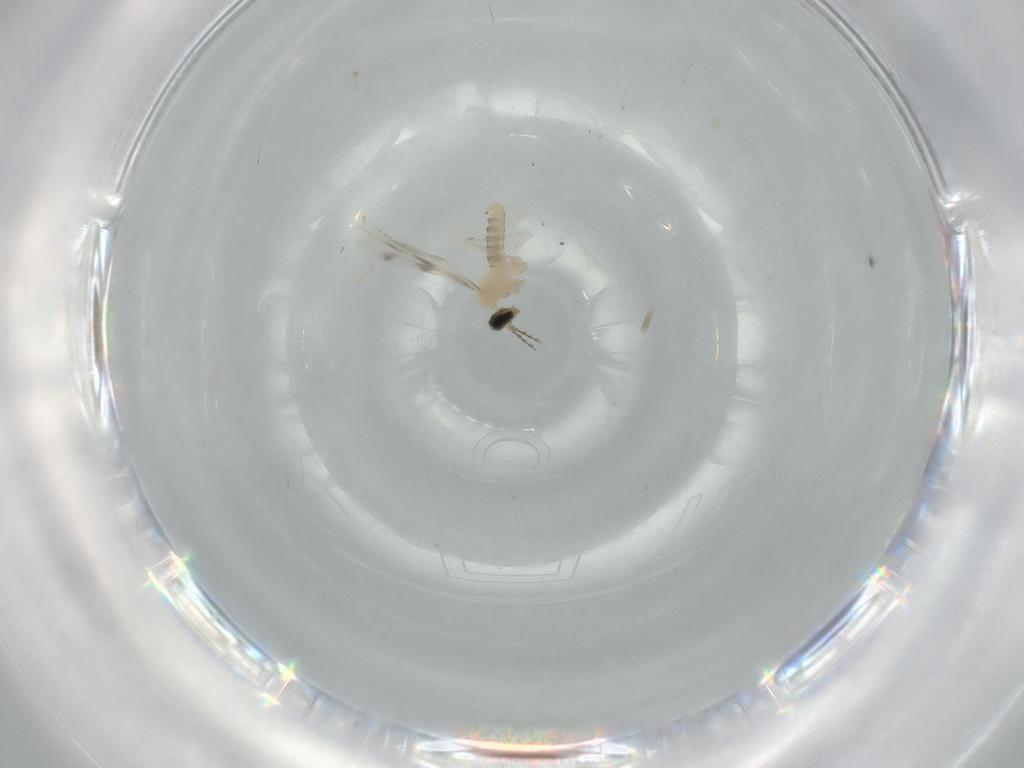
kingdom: Animalia
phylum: Arthropoda
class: Insecta
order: Diptera
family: Cecidomyiidae
